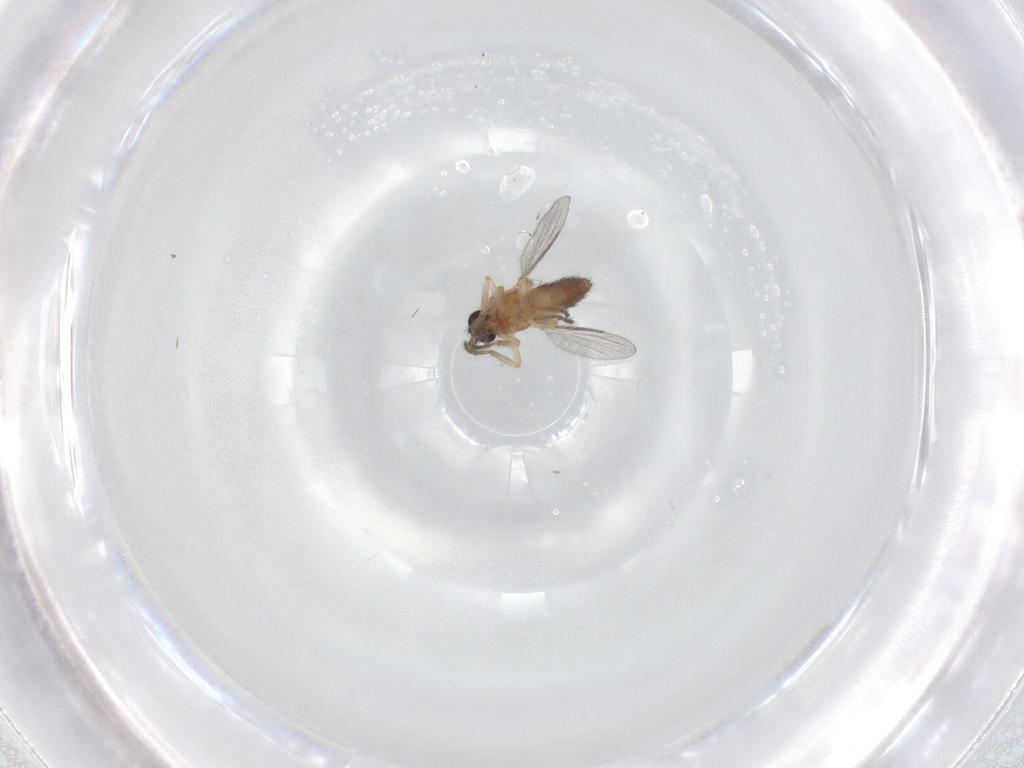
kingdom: Animalia
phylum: Arthropoda
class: Insecta
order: Diptera
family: Ceratopogonidae
